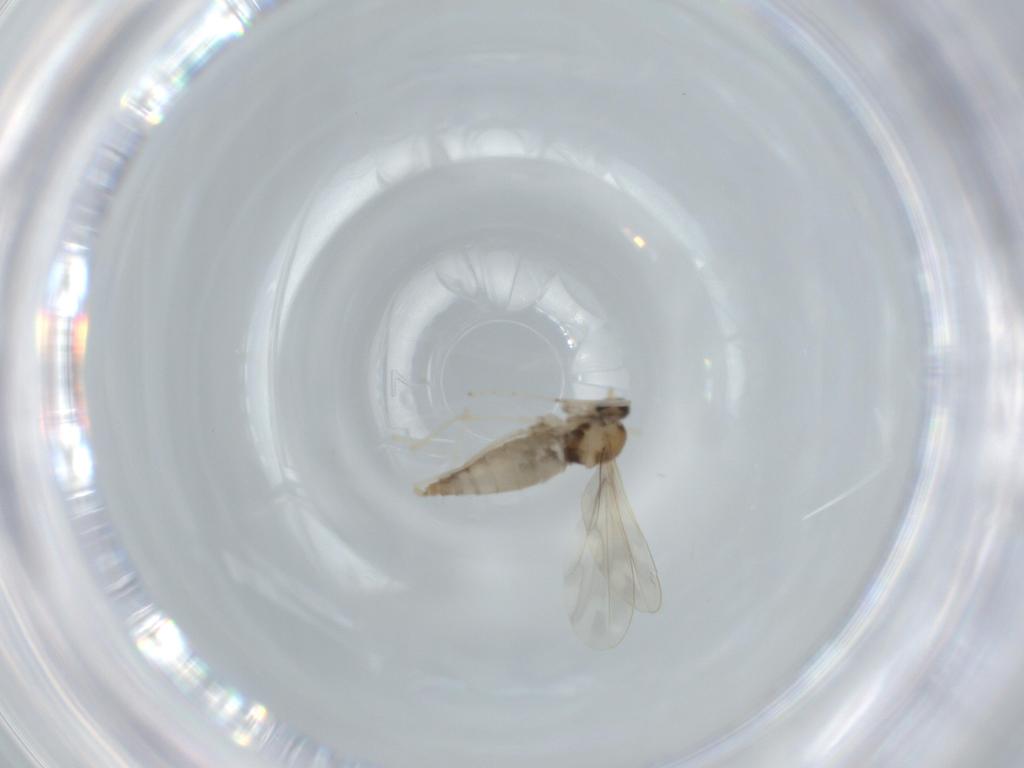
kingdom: Animalia
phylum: Arthropoda
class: Insecta
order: Diptera
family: Cecidomyiidae
